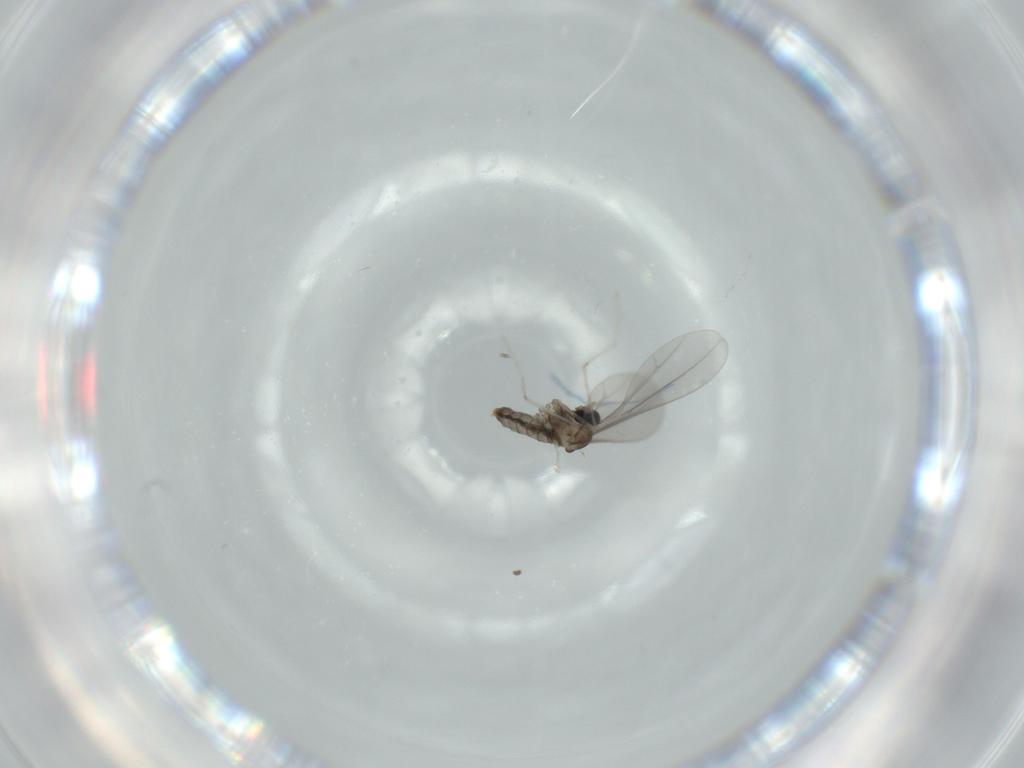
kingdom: Animalia
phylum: Arthropoda
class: Insecta
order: Diptera
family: Cecidomyiidae
